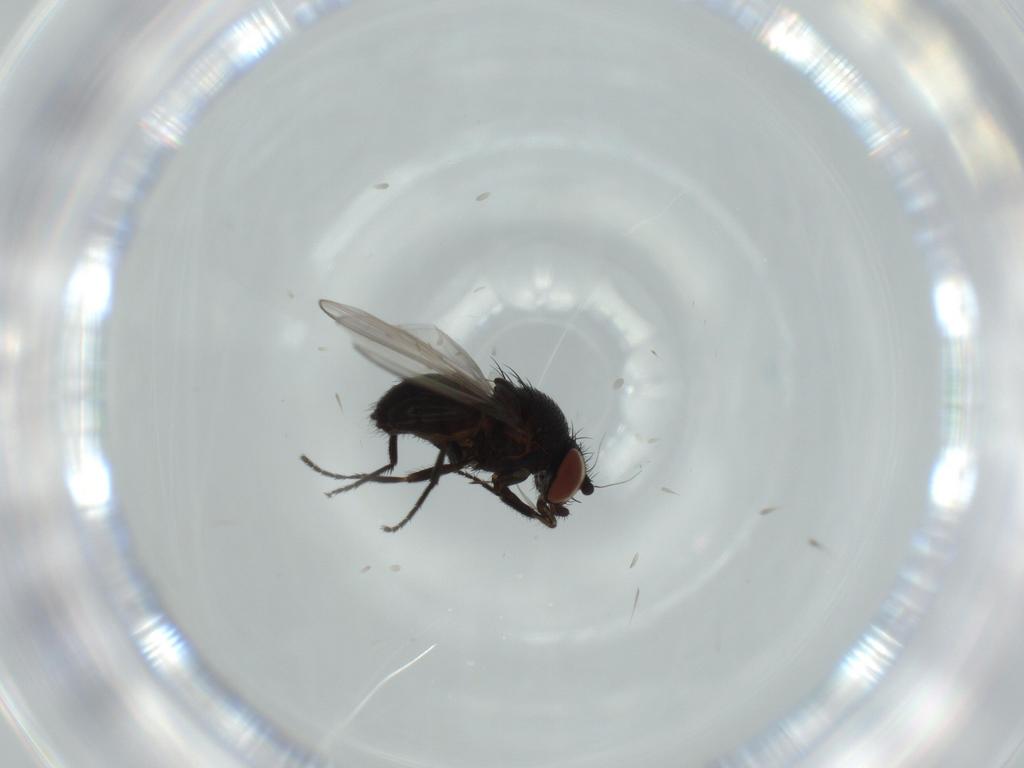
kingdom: Animalia
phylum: Arthropoda
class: Insecta
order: Diptera
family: Milichiidae
